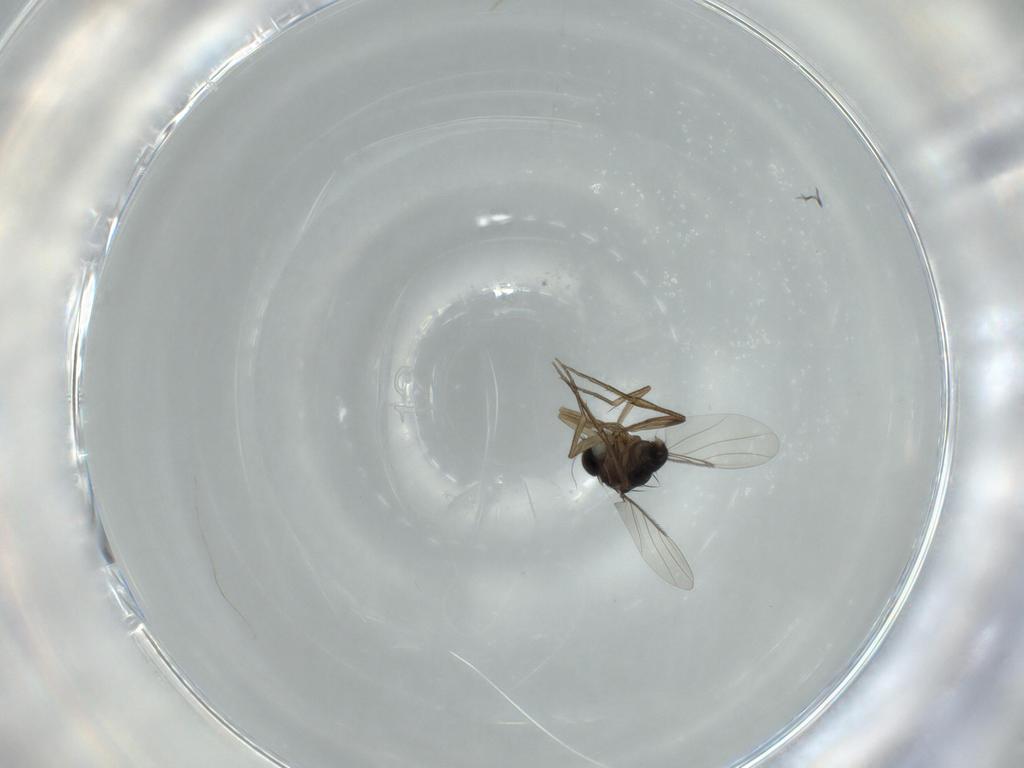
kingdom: Animalia
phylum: Arthropoda
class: Insecta
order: Diptera
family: Phoridae
